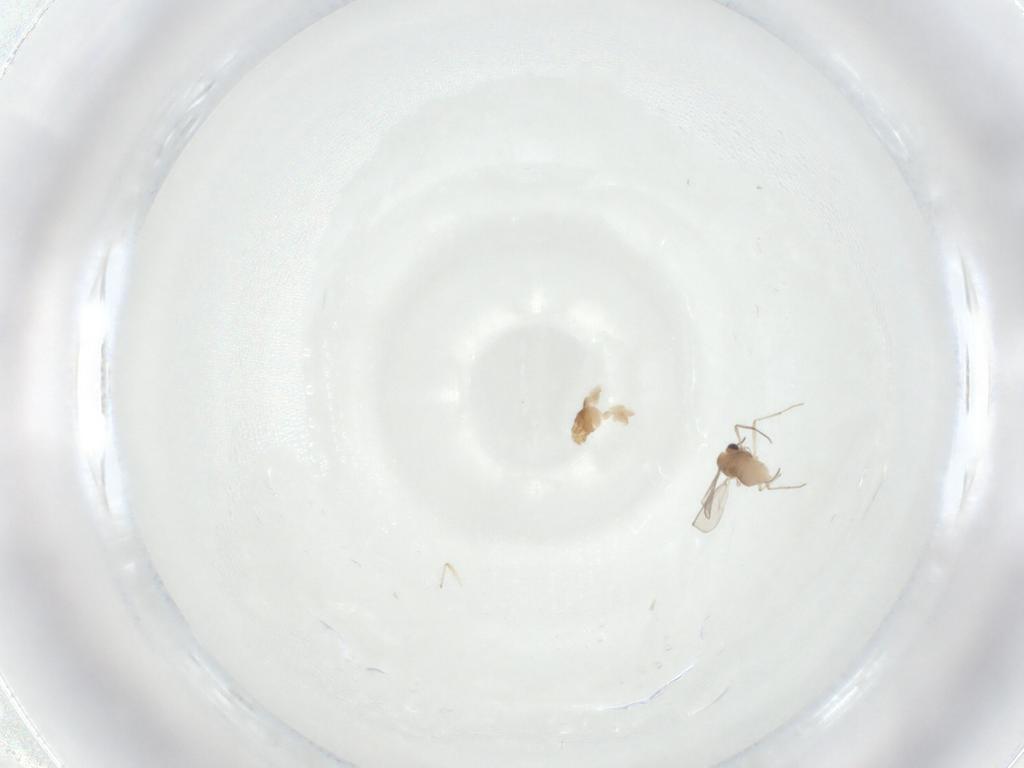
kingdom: Animalia
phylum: Arthropoda
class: Insecta
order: Diptera
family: Chironomidae
